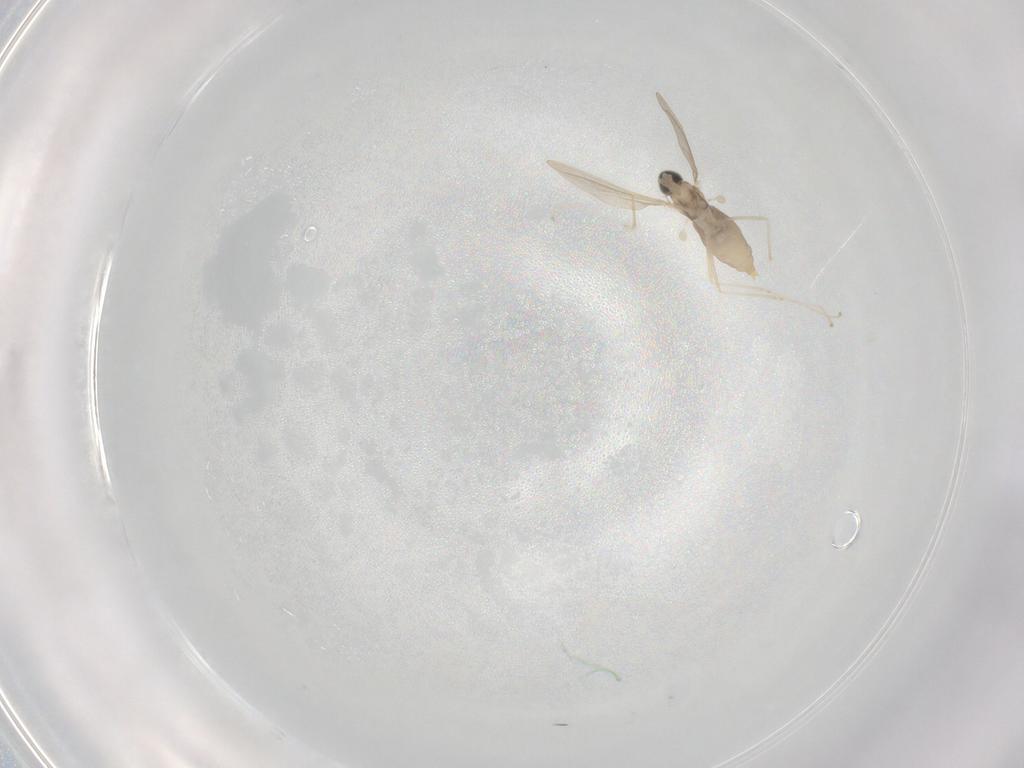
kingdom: Animalia
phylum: Arthropoda
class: Insecta
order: Diptera
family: Cecidomyiidae
